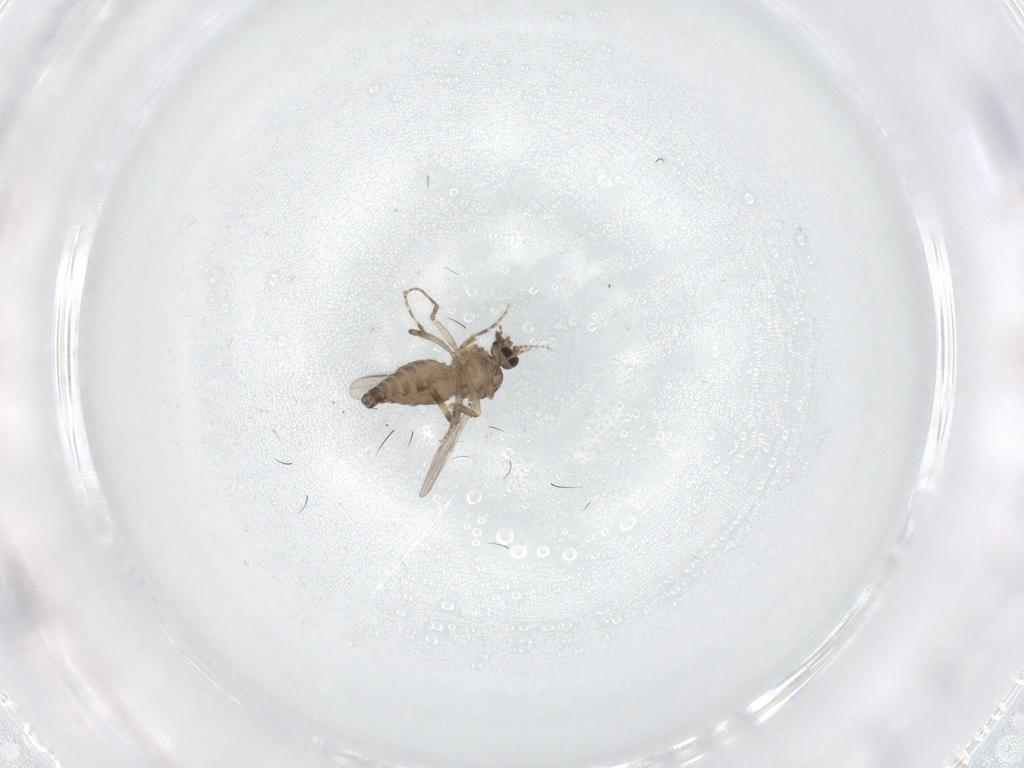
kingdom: Animalia
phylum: Arthropoda
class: Insecta
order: Diptera
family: Ceratopogonidae
